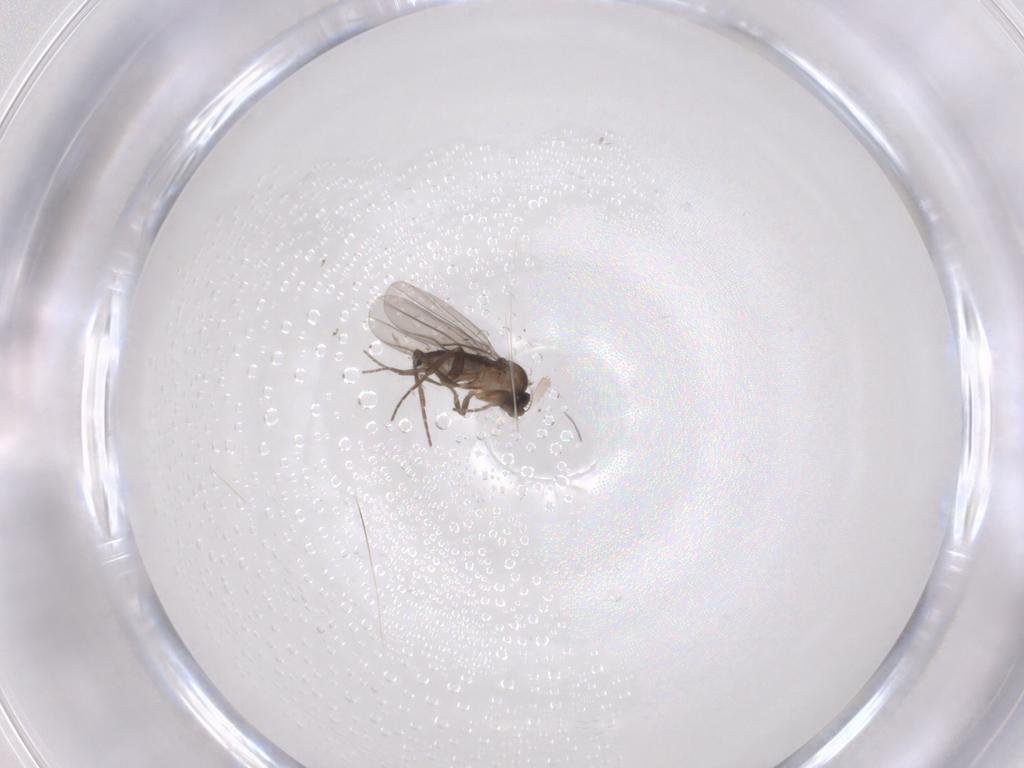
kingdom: Animalia
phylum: Arthropoda
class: Insecta
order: Diptera
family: Phoridae
